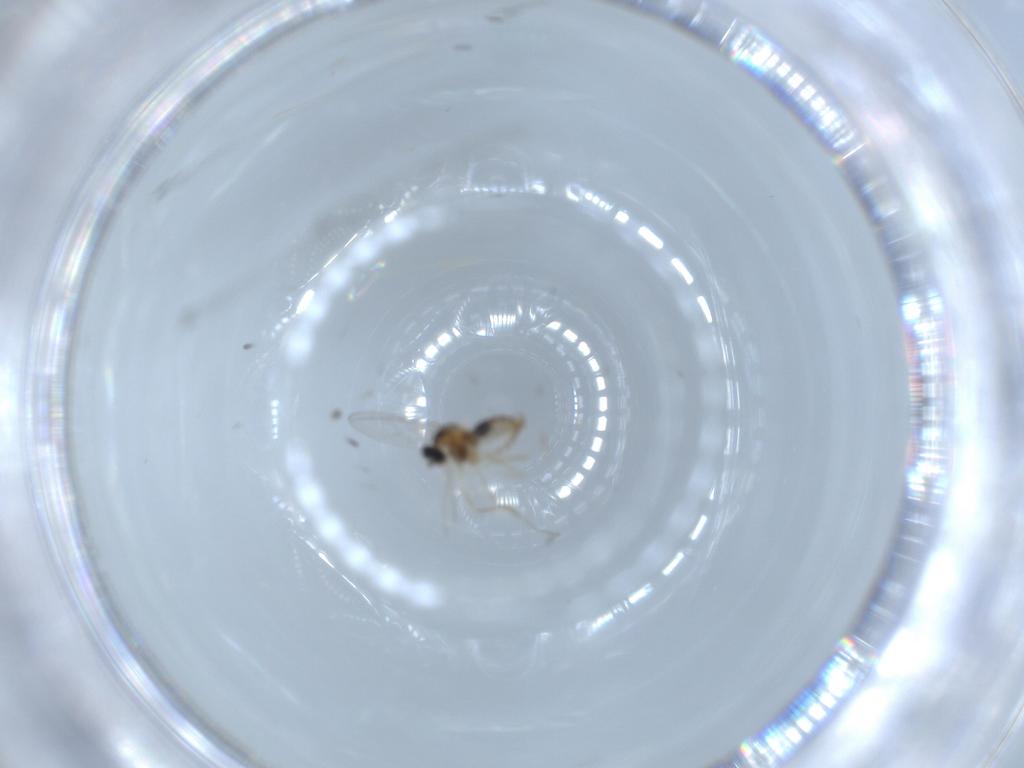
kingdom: Animalia
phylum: Arthropoda
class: Insecta
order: Diptera
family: Cecidomyiidae
